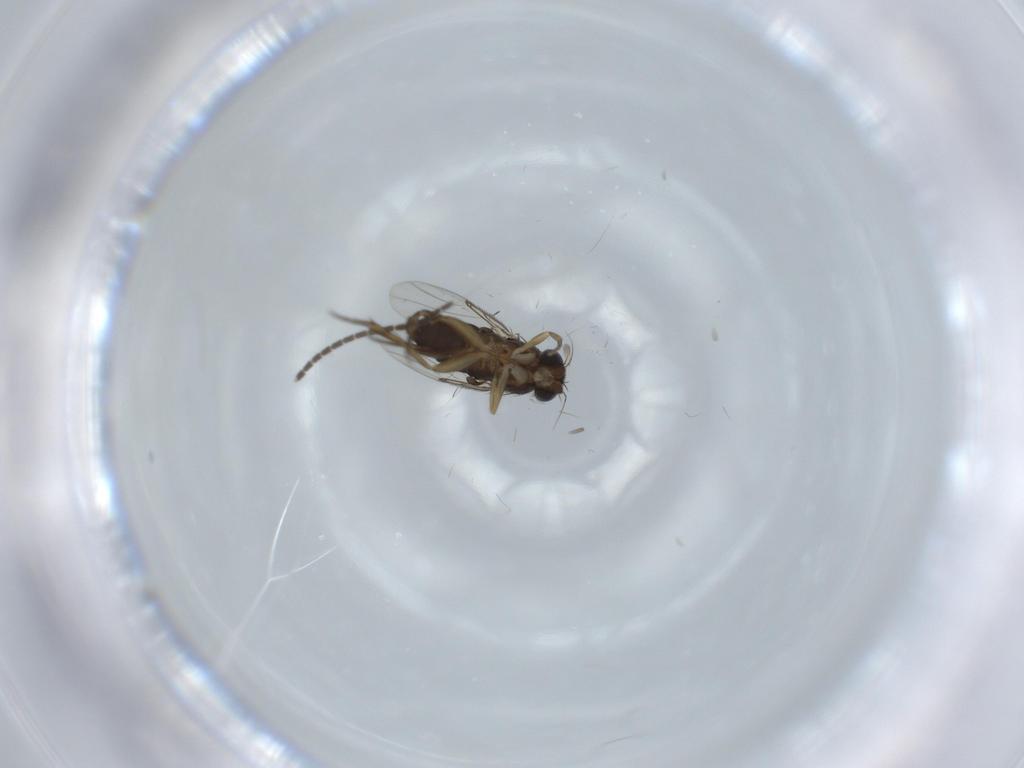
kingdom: Animalia
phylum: Arthropoda
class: Insecta
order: Diptera
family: Phoridae
